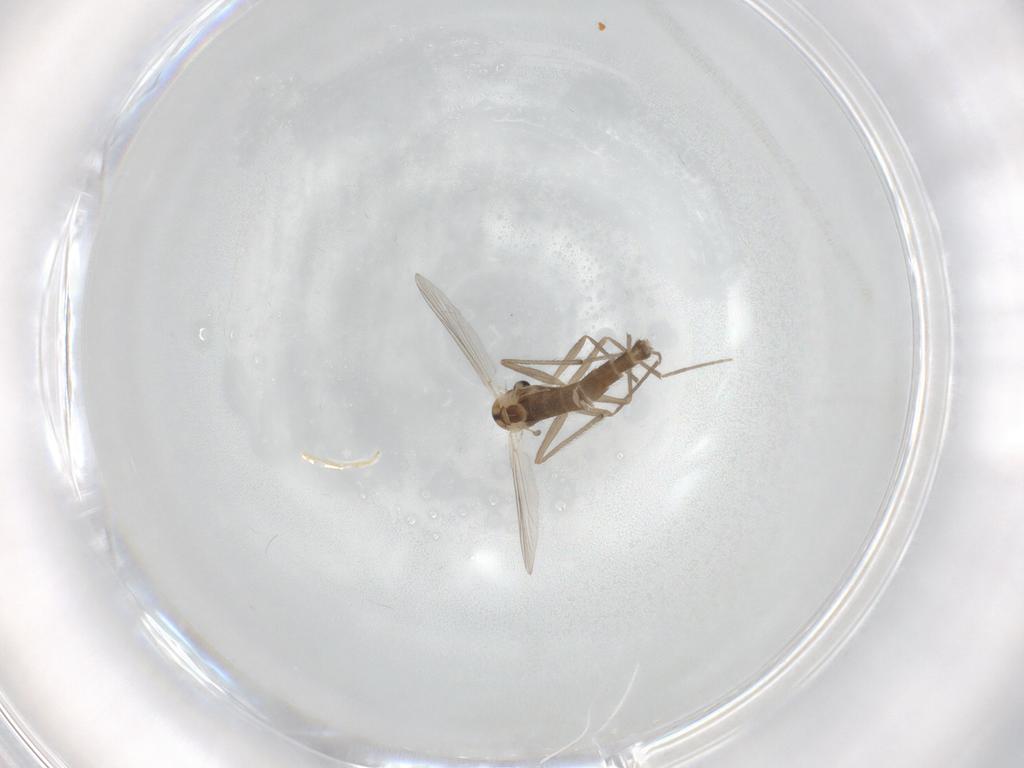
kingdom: Animalia
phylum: Arthropoda
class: Insecta
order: Diptera
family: Chironomidae
